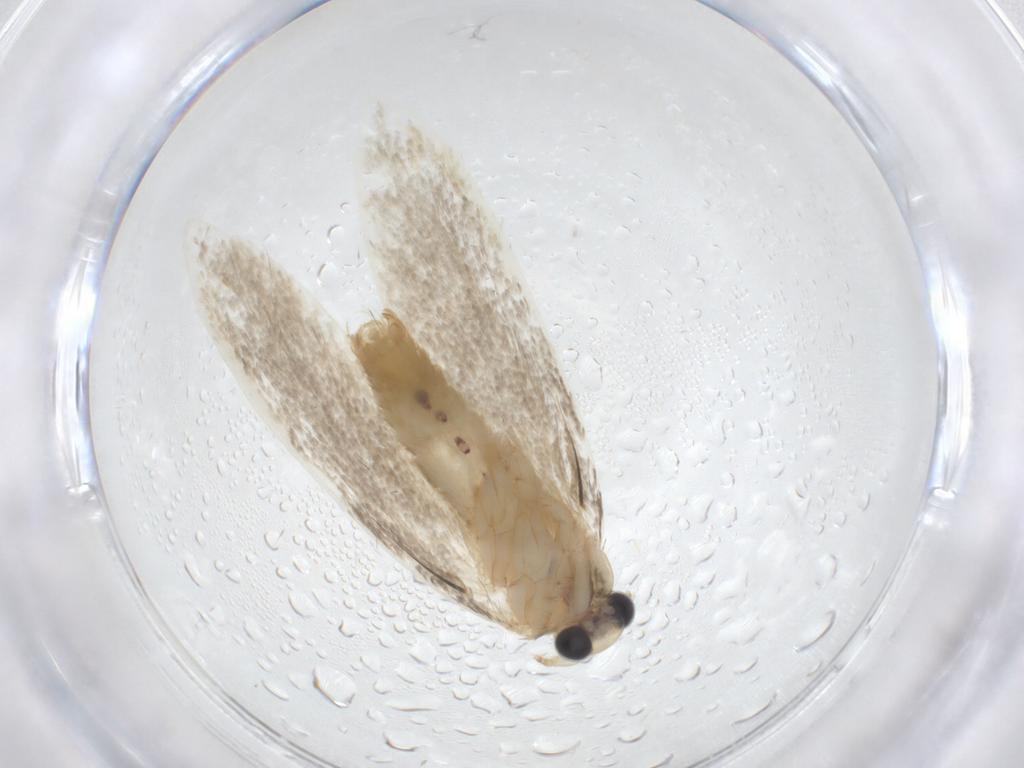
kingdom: Animalia
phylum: Arthropoda
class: Insecta
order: Lepidoptera
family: Psychidae
